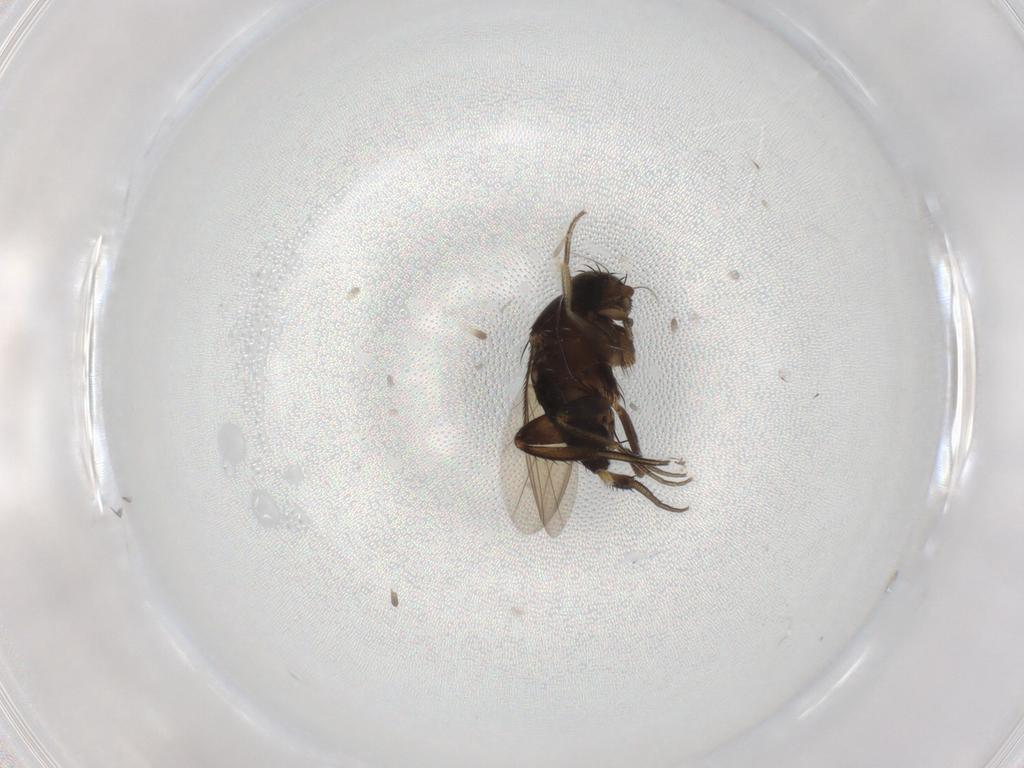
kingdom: Animalia
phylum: Arthropoda
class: Insecta
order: Diptera
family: Phoridae
